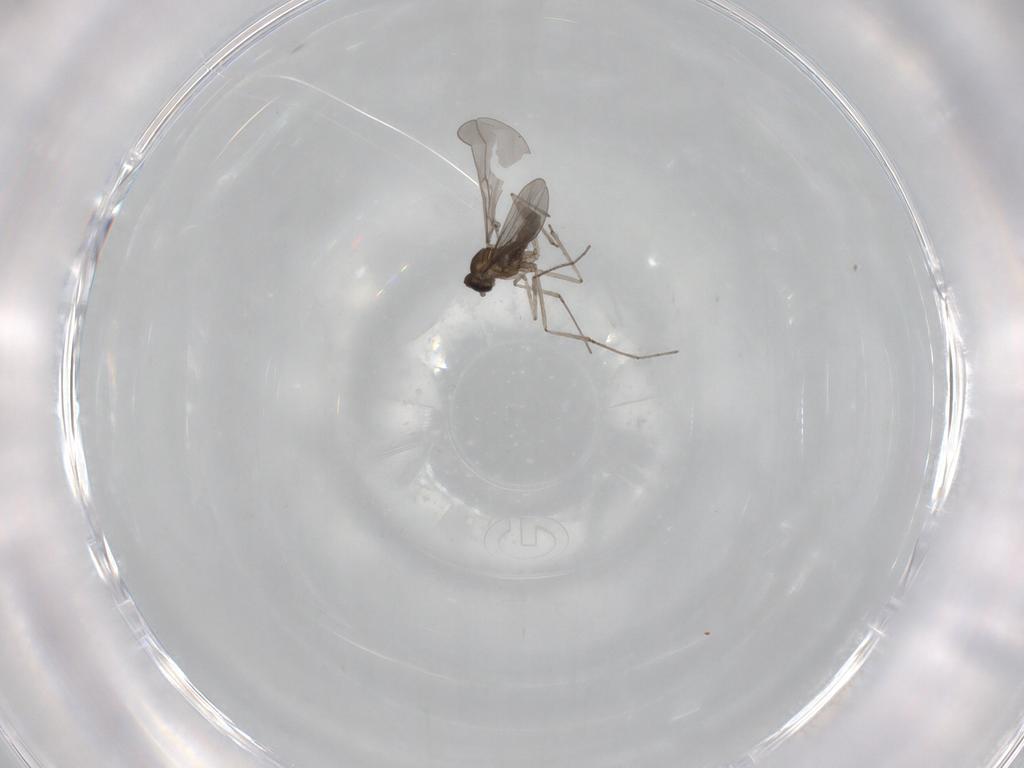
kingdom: Animalia
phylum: Arthropoda
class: Insecta
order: Diptera
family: Cecidomyiidae
